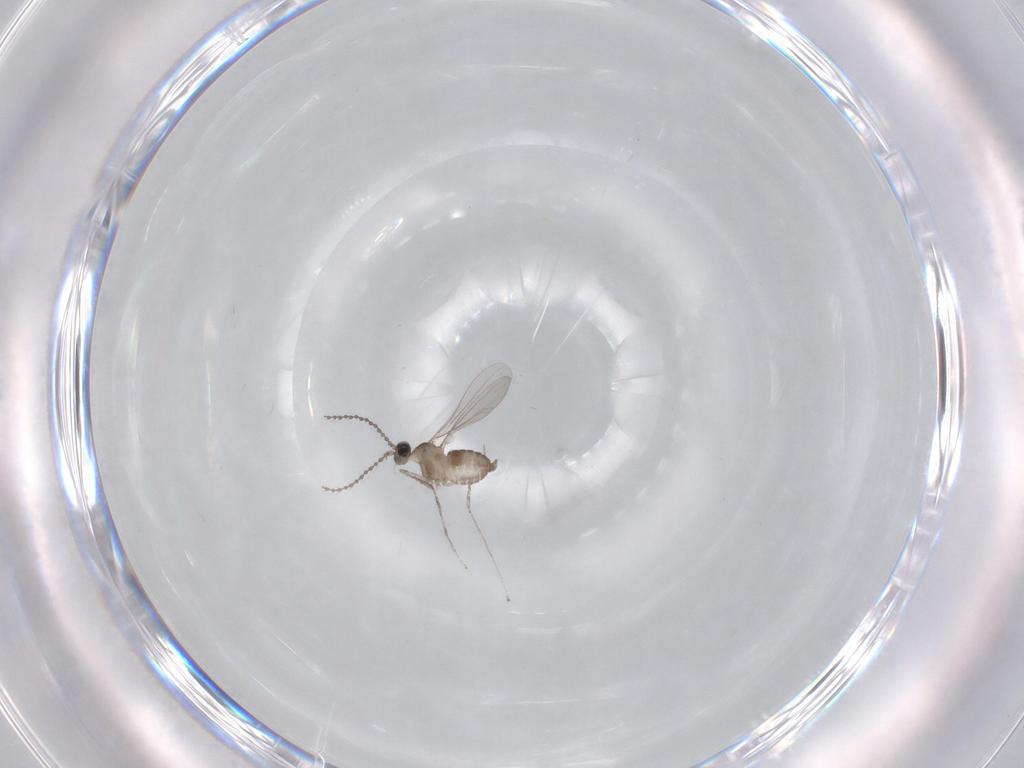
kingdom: Animalia
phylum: Arthropoda
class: Insecta
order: Diptera
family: Cecidomyiidae
